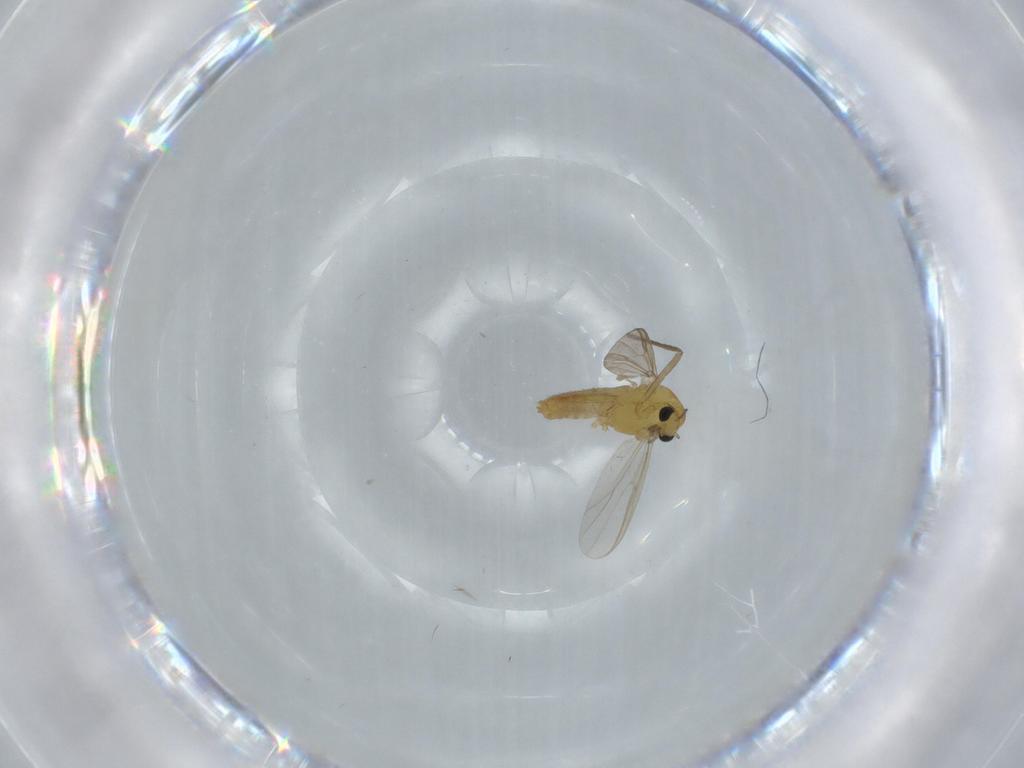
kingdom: Animalia
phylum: Arthropoda
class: Insecta
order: Diptera
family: Chironomidae
